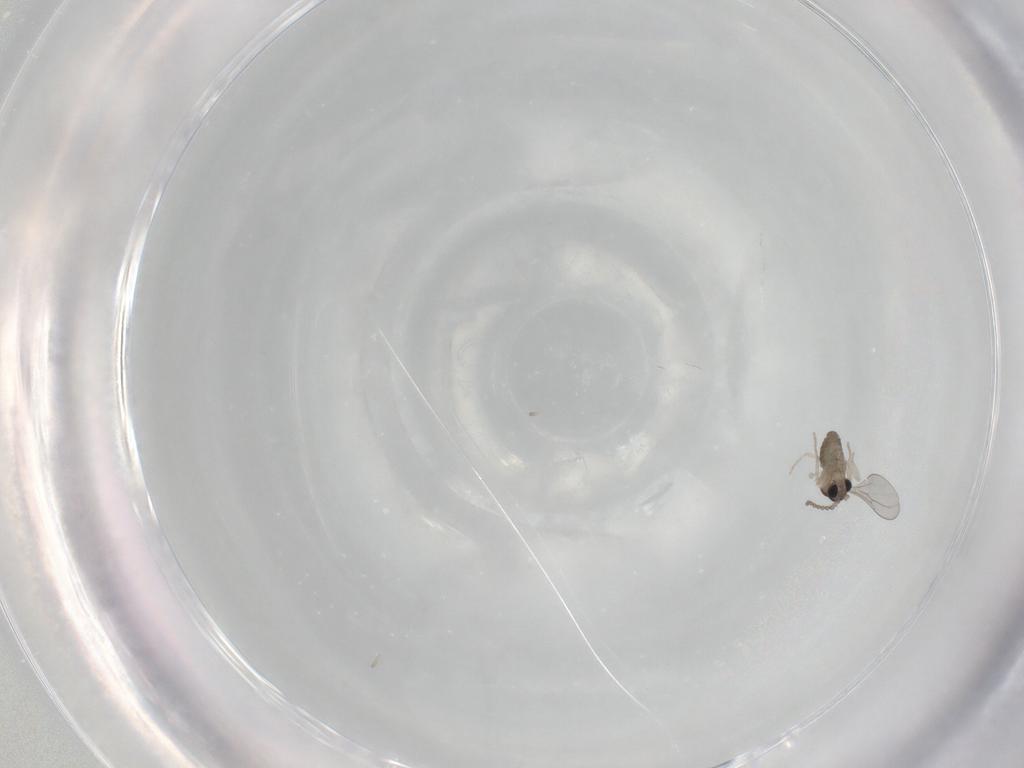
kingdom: Animalia
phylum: Arthropoda
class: Insecta
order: Diptera
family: Cecidomyiidae
